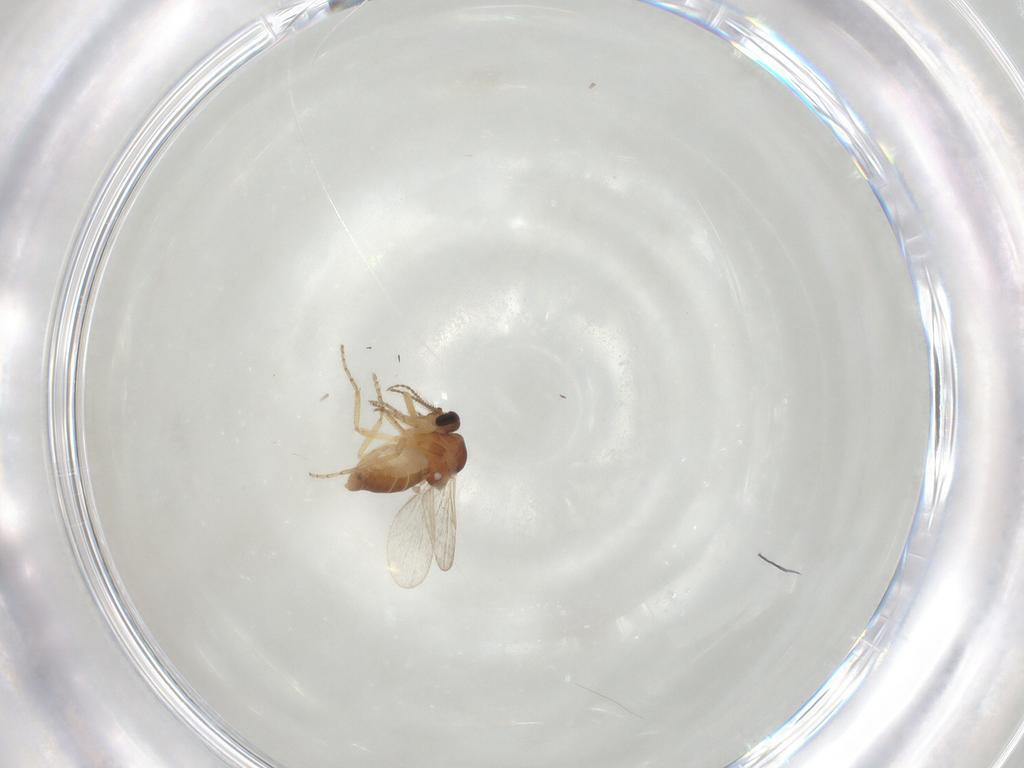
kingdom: Animalia
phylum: Arthropoda
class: Insecta
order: Diptera
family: Ceratopogonidae
